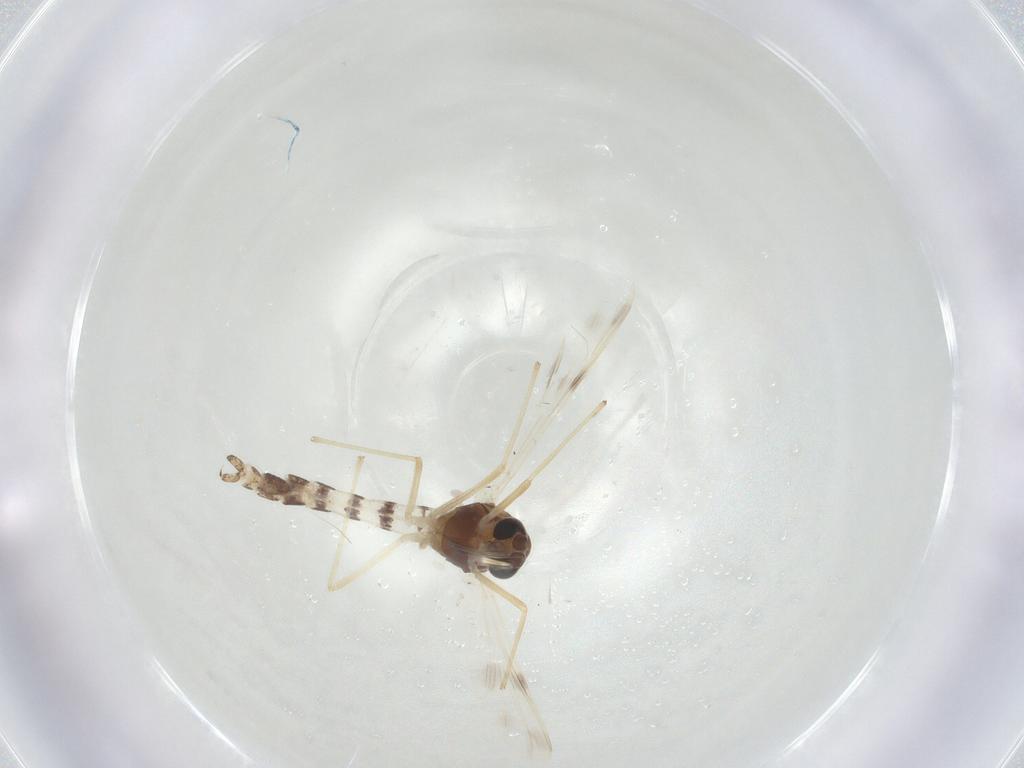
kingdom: Animalia
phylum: Arthropoda
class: Insecta
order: Diptera
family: Chironomidae
